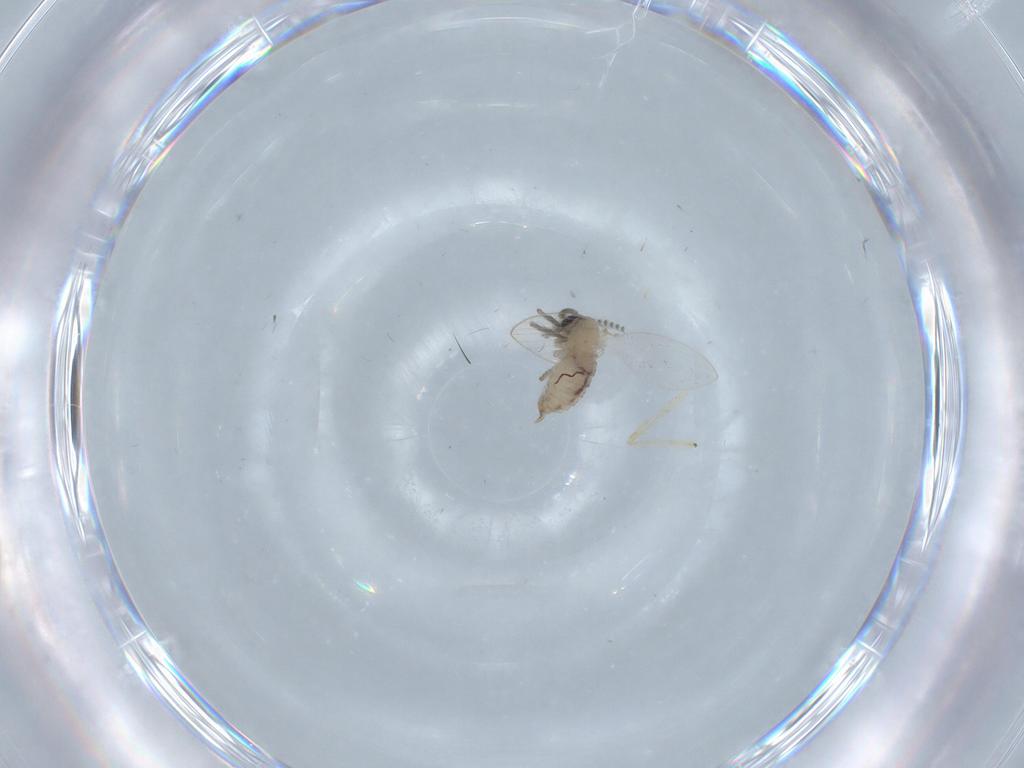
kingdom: Animalia
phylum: Arthropoda
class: Insecta
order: Diptera
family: Psychodidae
